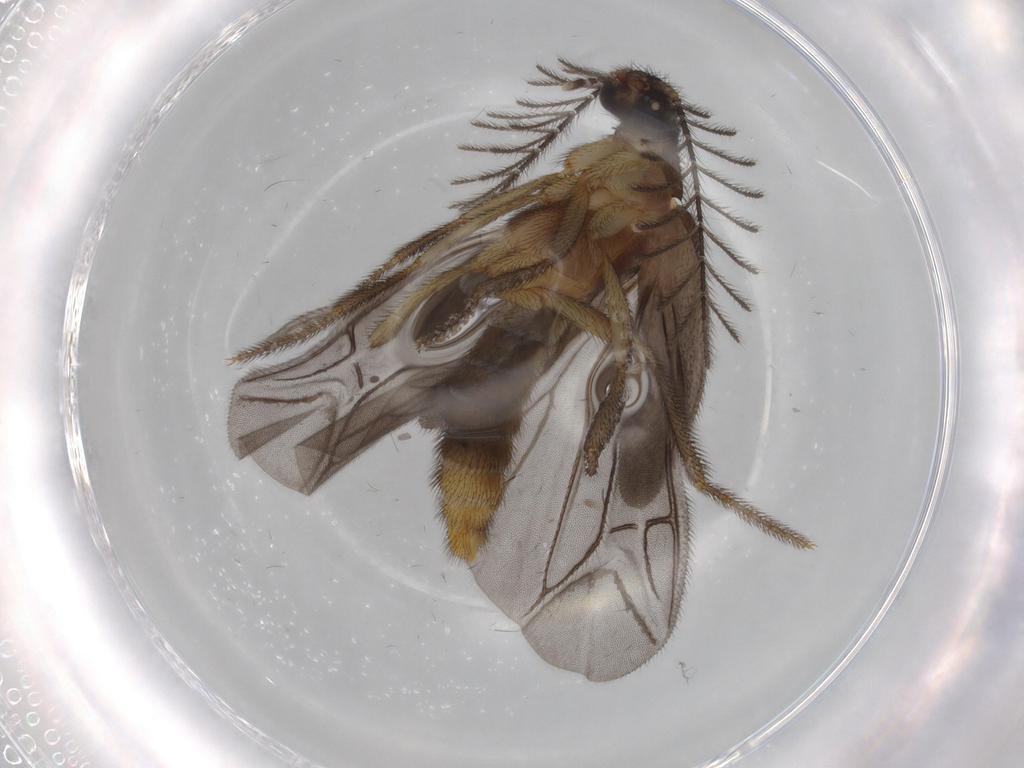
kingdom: Animalia
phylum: Arthropoda
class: Insecta
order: Coleoptera
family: Phengodidae
